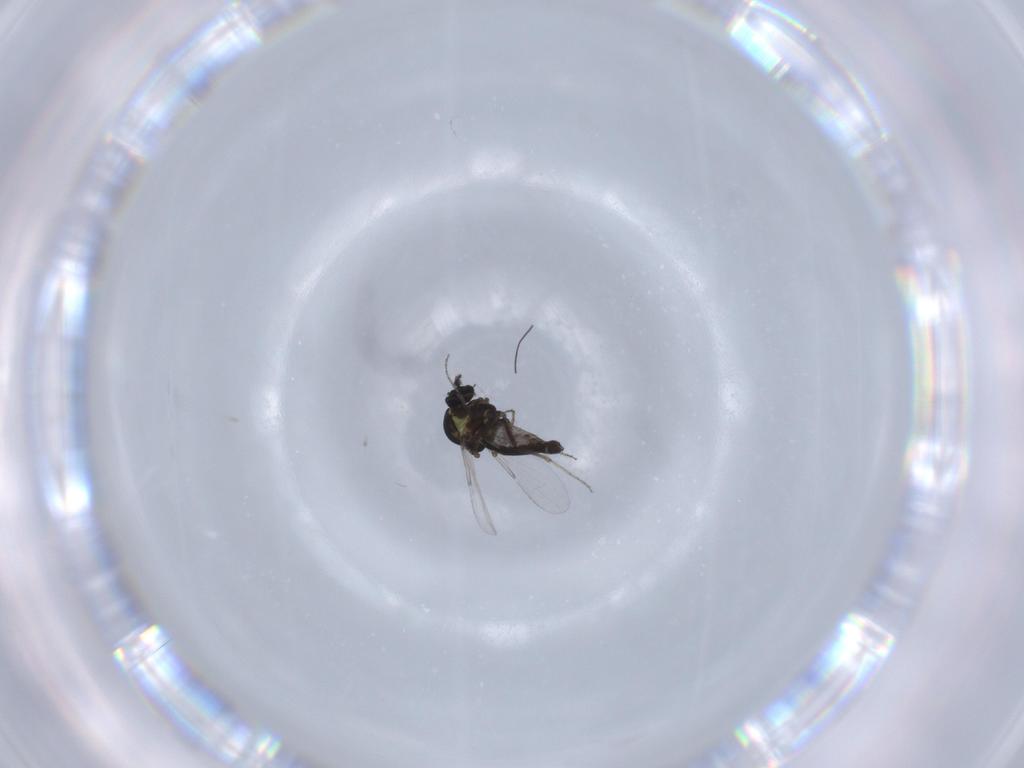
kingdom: Animalia
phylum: Arthropoda
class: Insecta
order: Diptera
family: Ceratopogonidae
